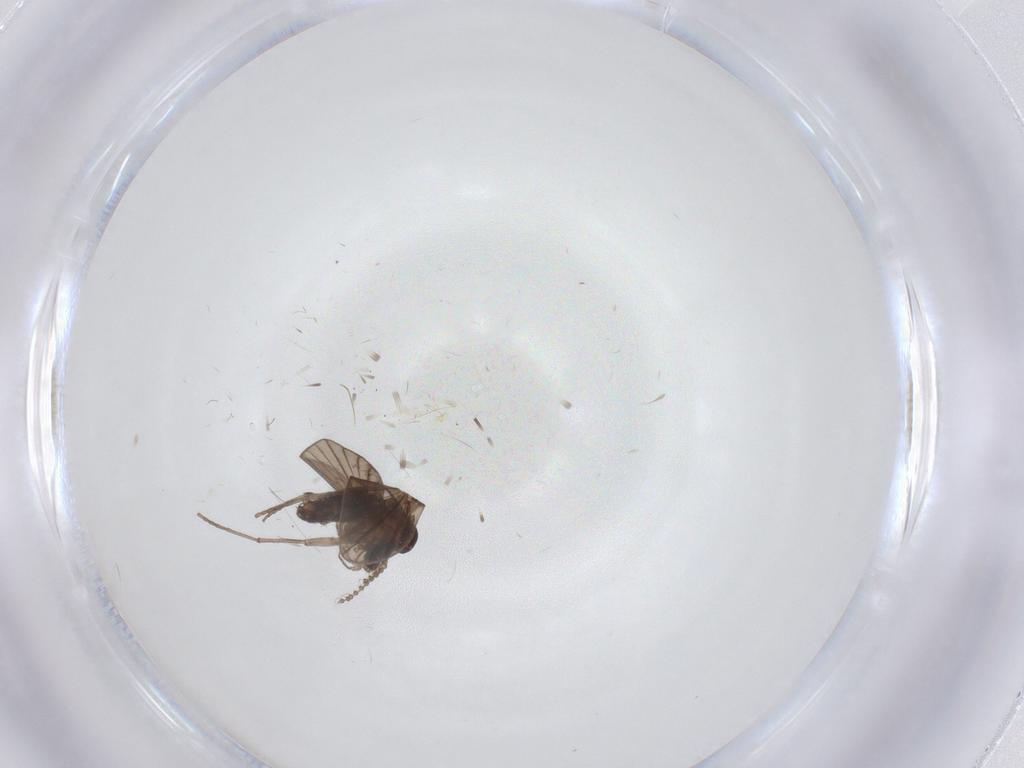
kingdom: Animalia
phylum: Arthropoda
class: Insecta
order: Diptera
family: Psychodidae
